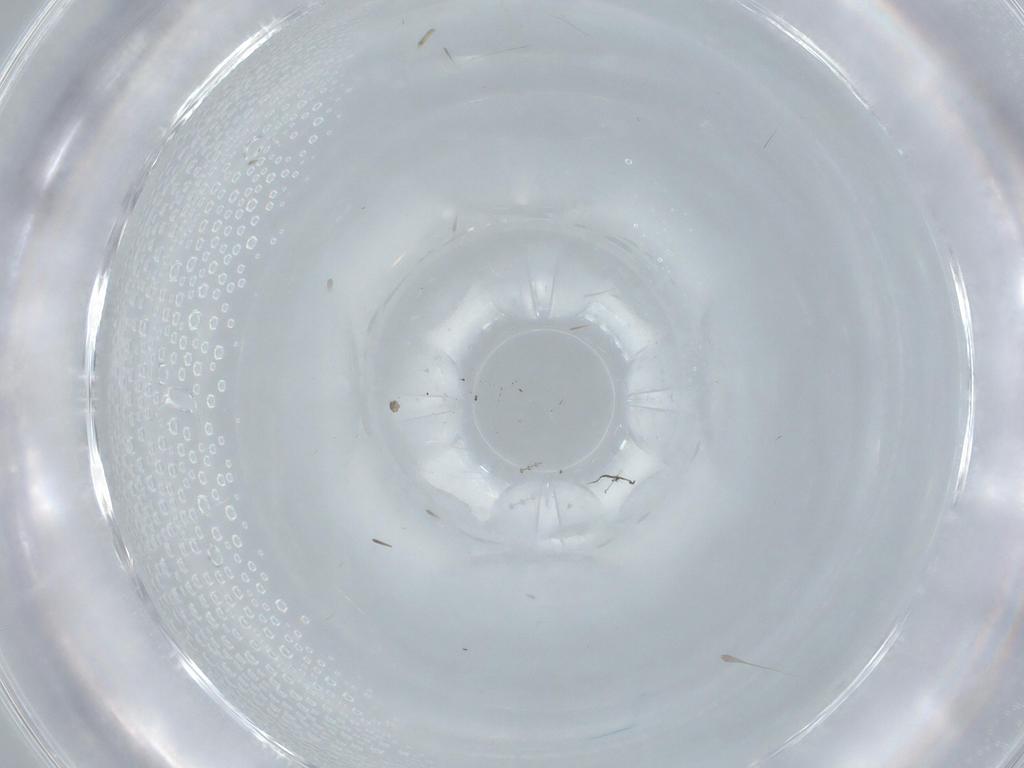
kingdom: Animalia
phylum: Arthropoda
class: Insecta
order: Diptera
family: Cecidomyiidae
